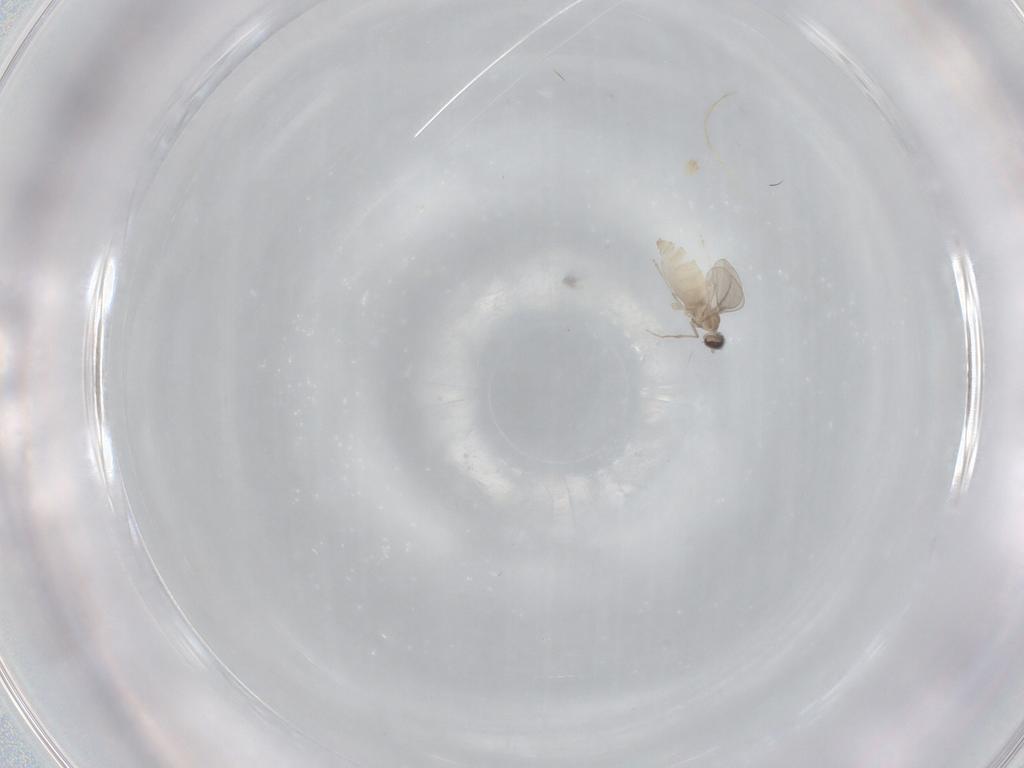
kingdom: Animalia
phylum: Arthropoda
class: Insecta
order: Diptera
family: Cecidomyiidae
